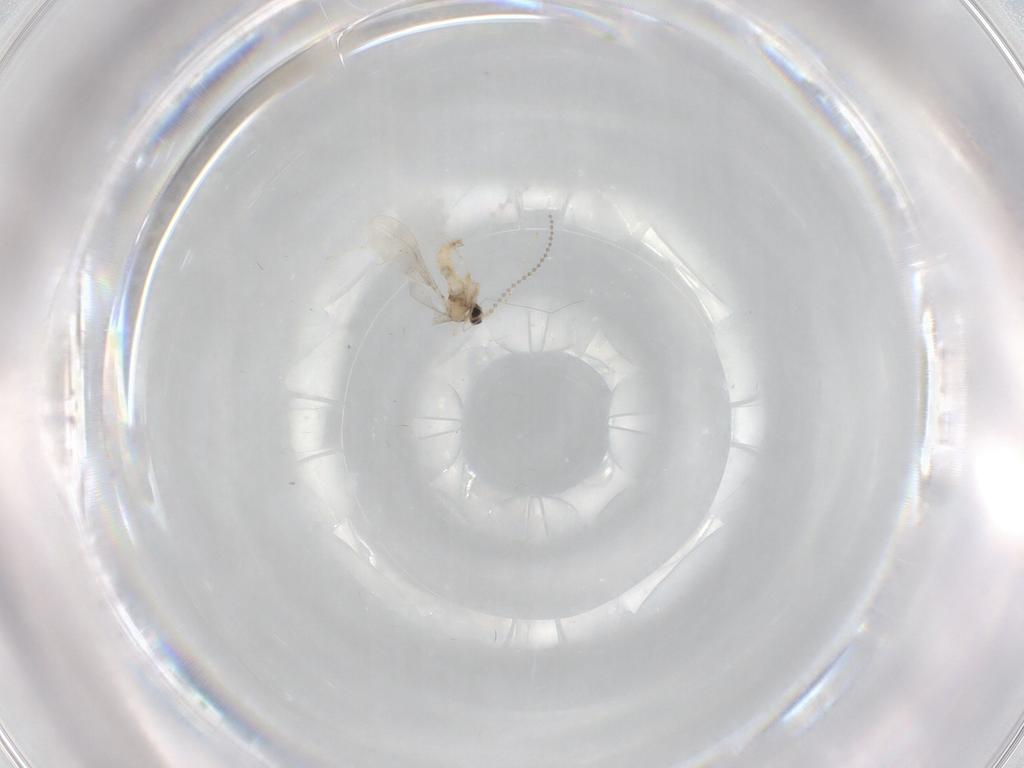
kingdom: Animalia
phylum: Arthropoda
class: Insecta
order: Diptera
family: Cecidomyiidae
